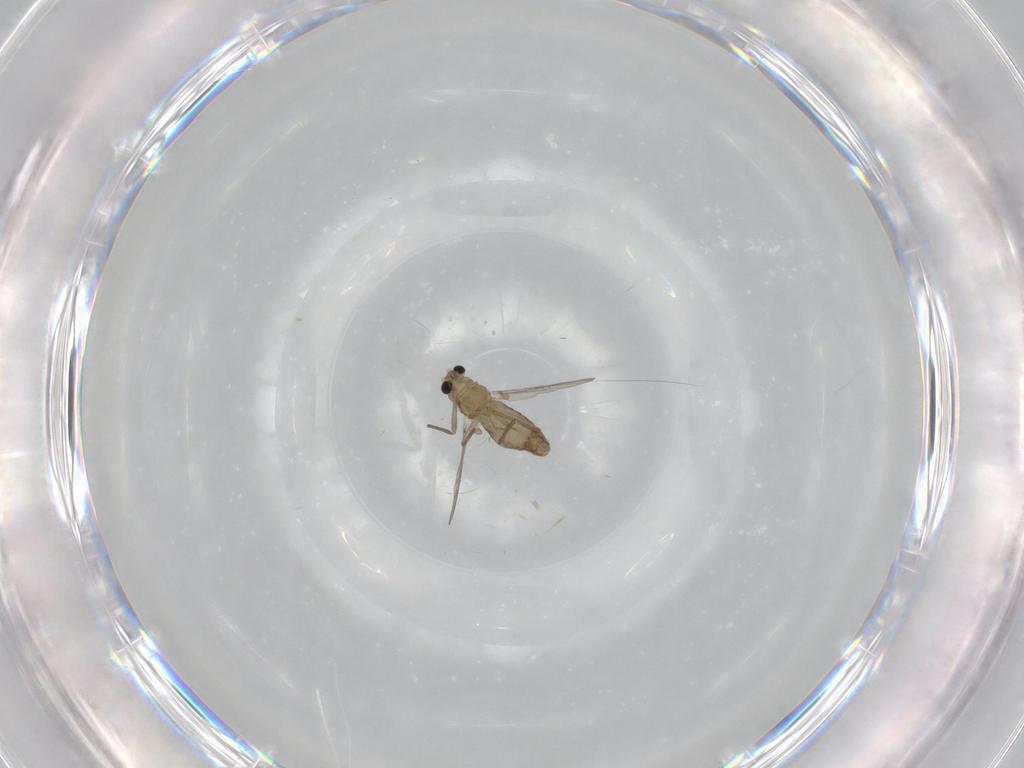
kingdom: Animalia
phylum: Arthropoda
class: Insecta
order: Diptera
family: Chironomidae
